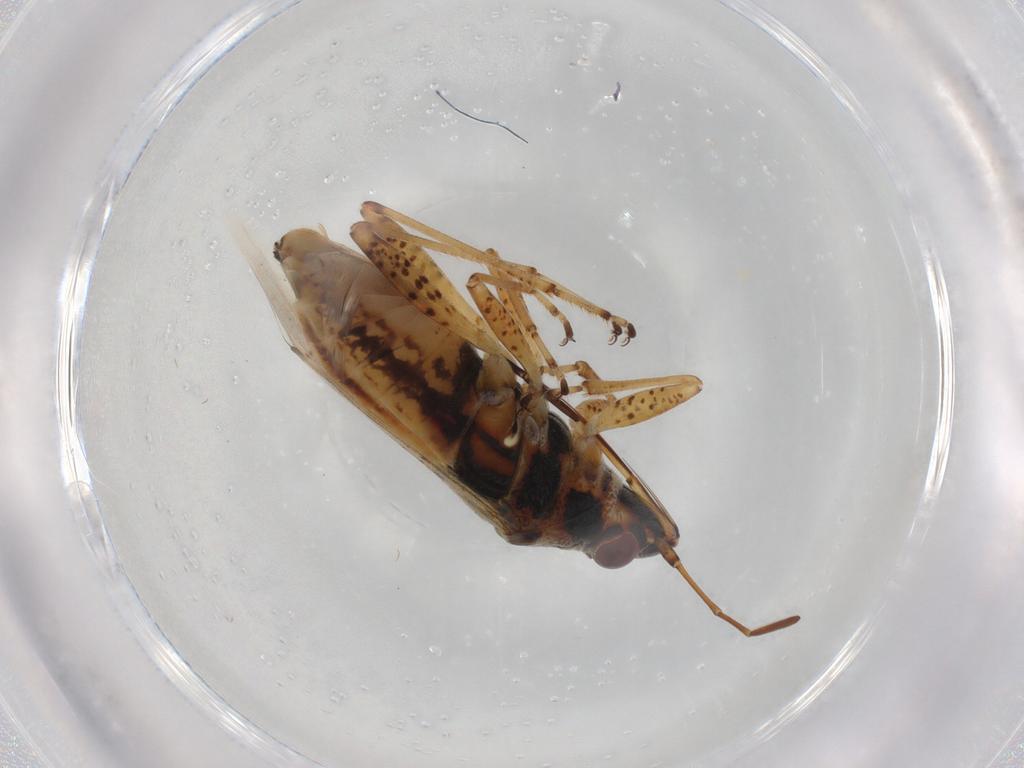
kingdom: Animalia
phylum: Arthropoda
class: Insecta
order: Hemiptera
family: Lygaeidae
